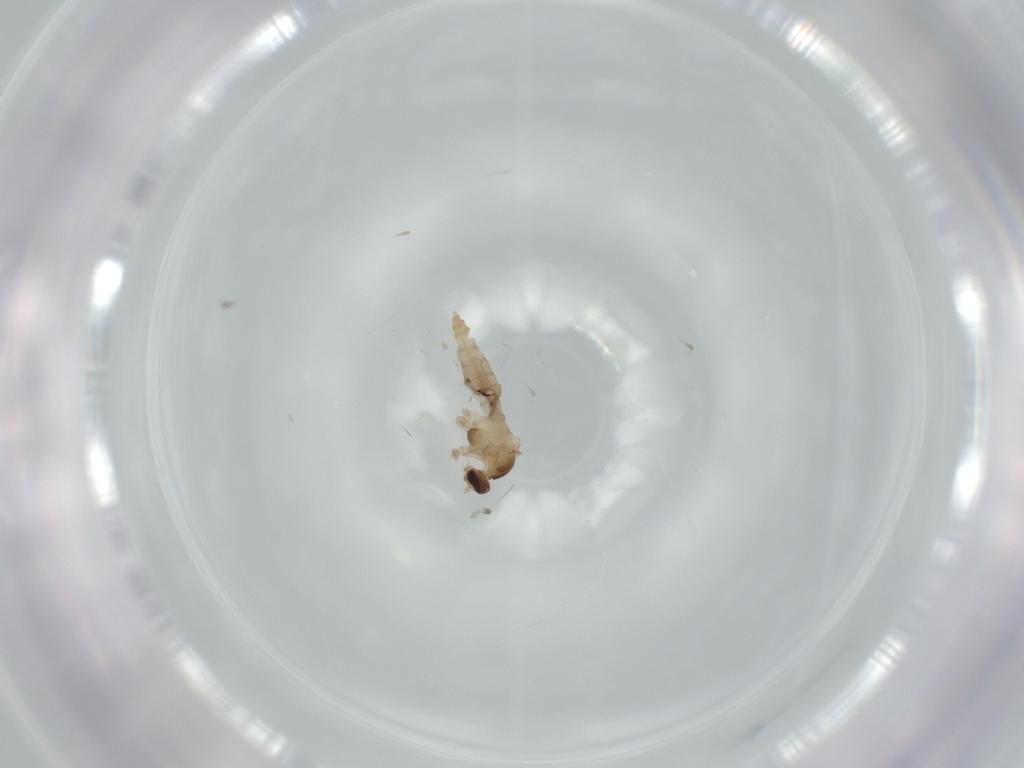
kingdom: Animalia
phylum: Arthropoda
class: Insecta
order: Diptera
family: Cecidomyiidae
